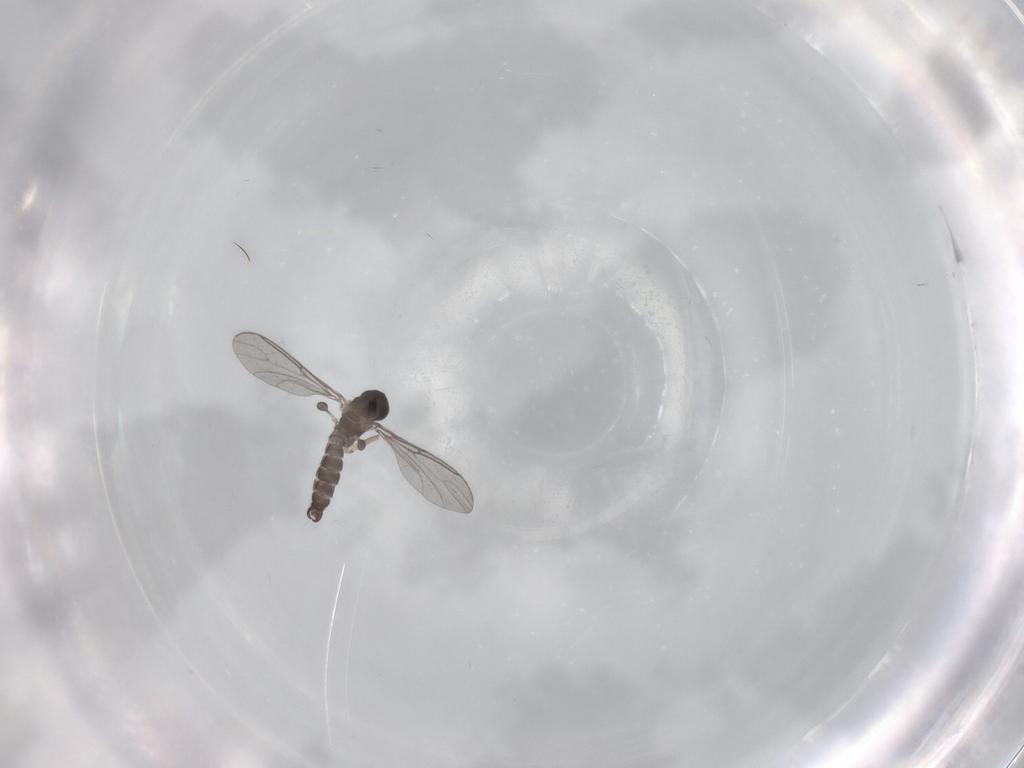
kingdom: Animalia
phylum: Arthropoda
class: Insecta
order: Diptera
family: Sciaridae
